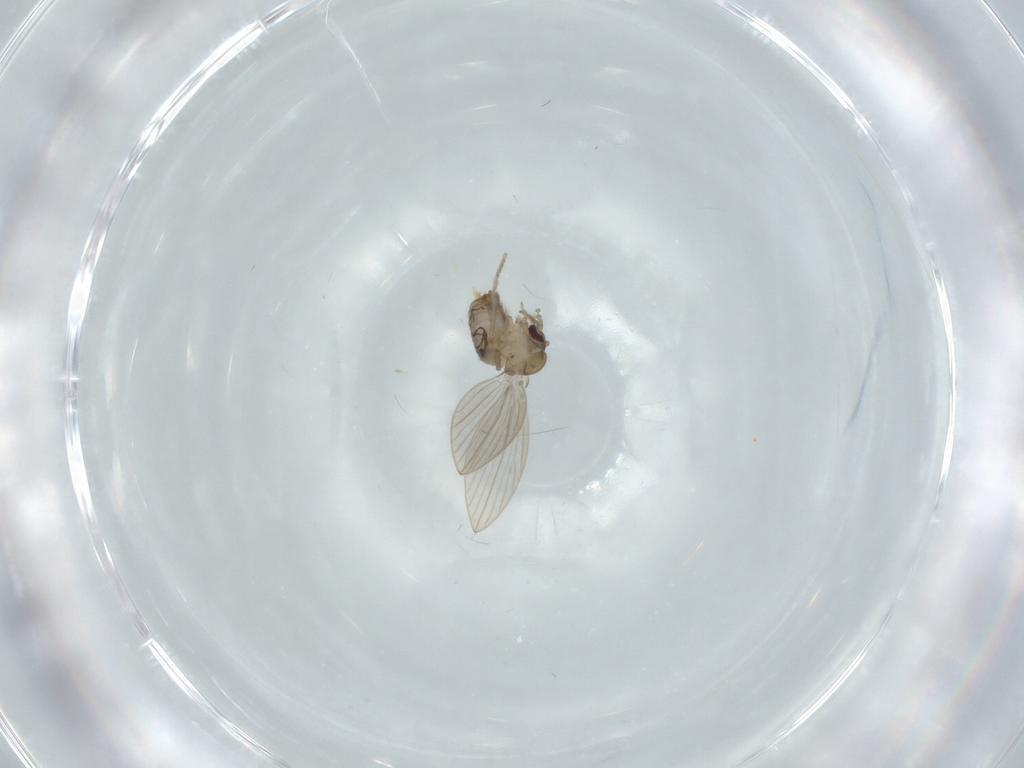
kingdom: Animalia
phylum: Arthropoda
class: Insecta
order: Diptera
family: Psychodidae
